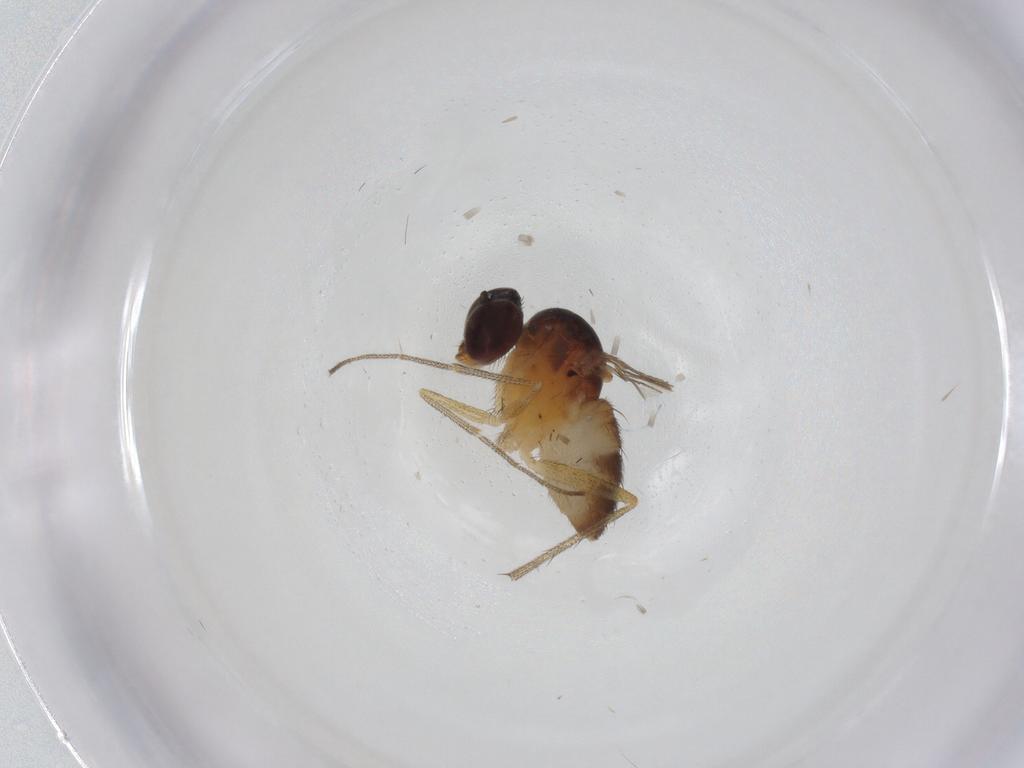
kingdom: Animalia
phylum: Arthropoda
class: Insecta
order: Diptera
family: Dolichopodidae
